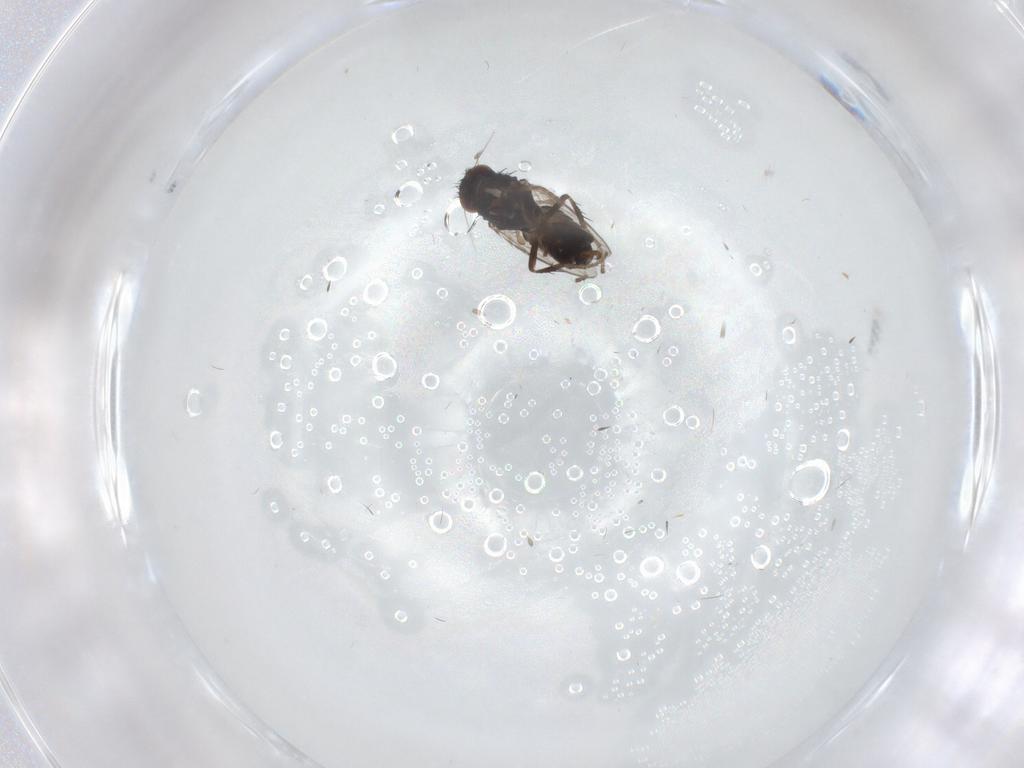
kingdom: Animalia
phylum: Arthropoda
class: Insecta
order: Diptera
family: Sphaeroceridae
